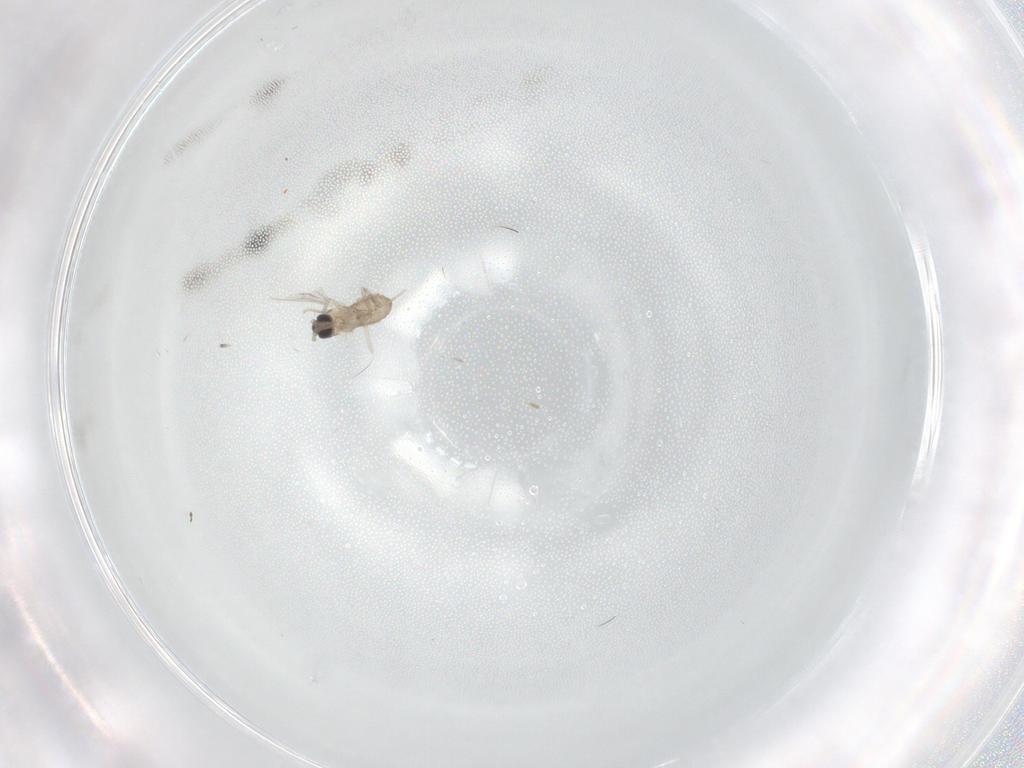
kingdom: Animalia
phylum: Arthropoda
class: Insecta
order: Diptera
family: Cecidomyiidae
